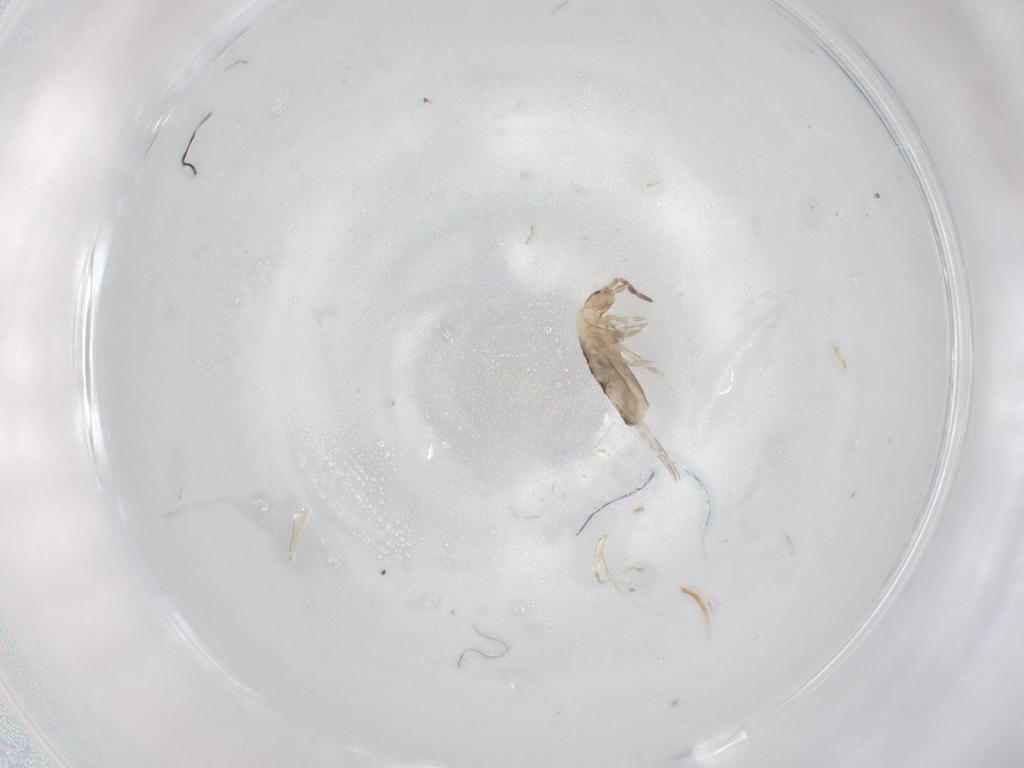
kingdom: Animalia
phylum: Arthropoda
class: Collembola
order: Entomobryomorpha
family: Entomobryidae
